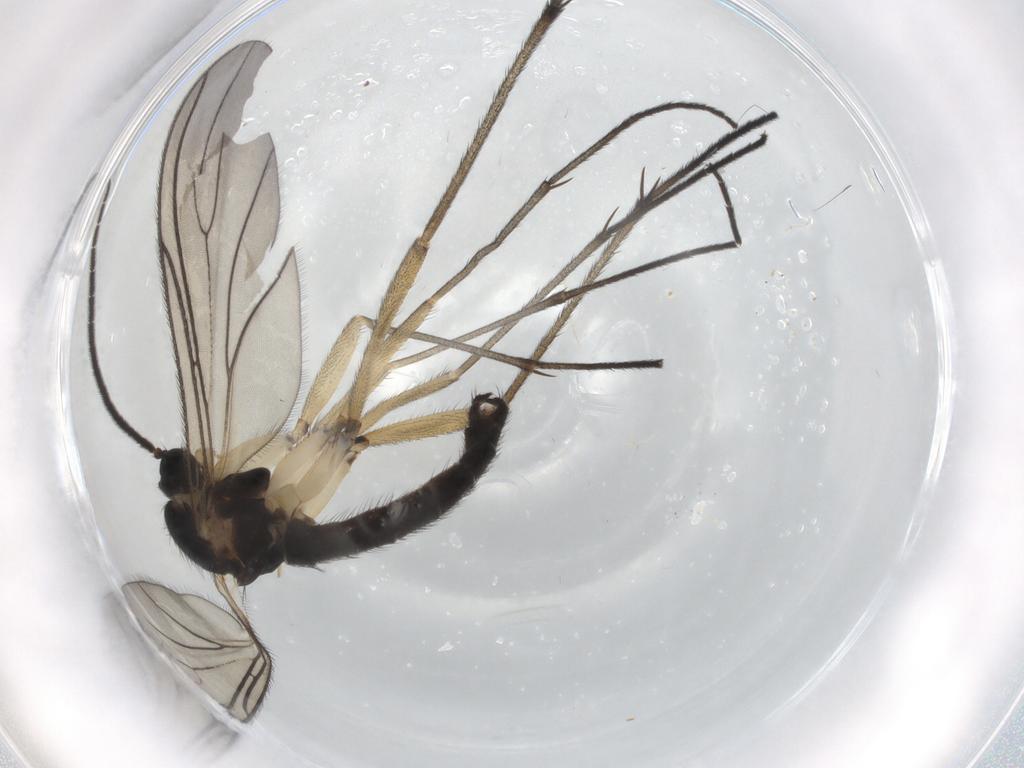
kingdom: Animalia
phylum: Arthropoda
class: Insecta
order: Diptera
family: Sciaridae
